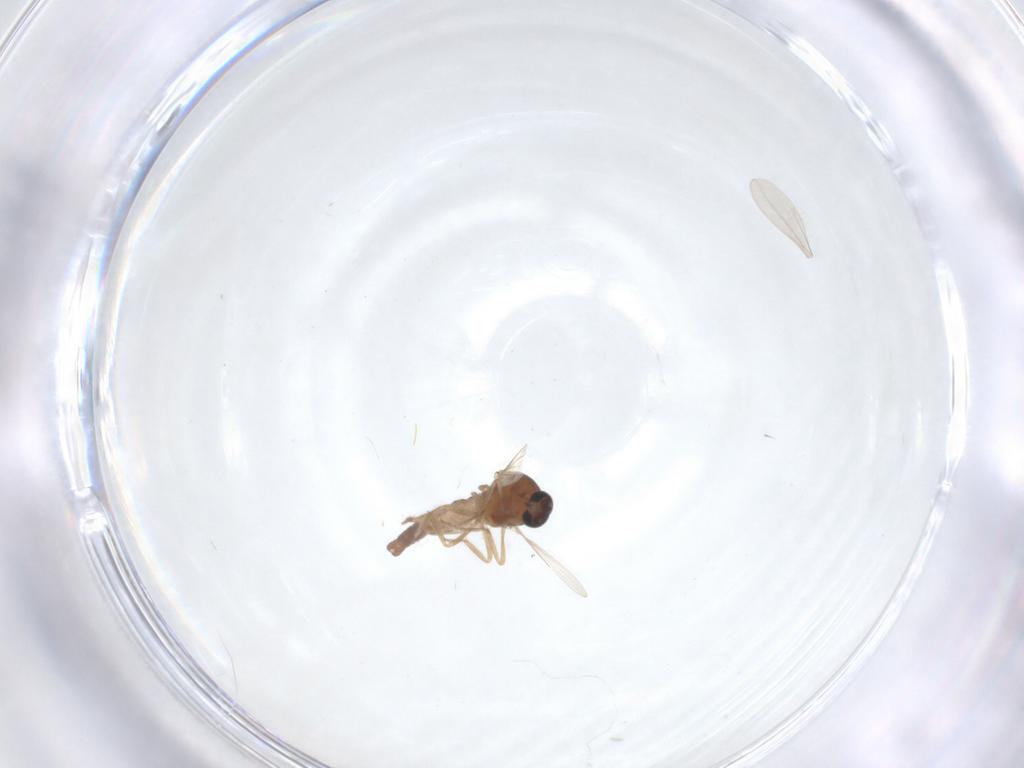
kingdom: Animalia
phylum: Arthropoda
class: Insecta
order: Diptera
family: Ceratopogonidae
